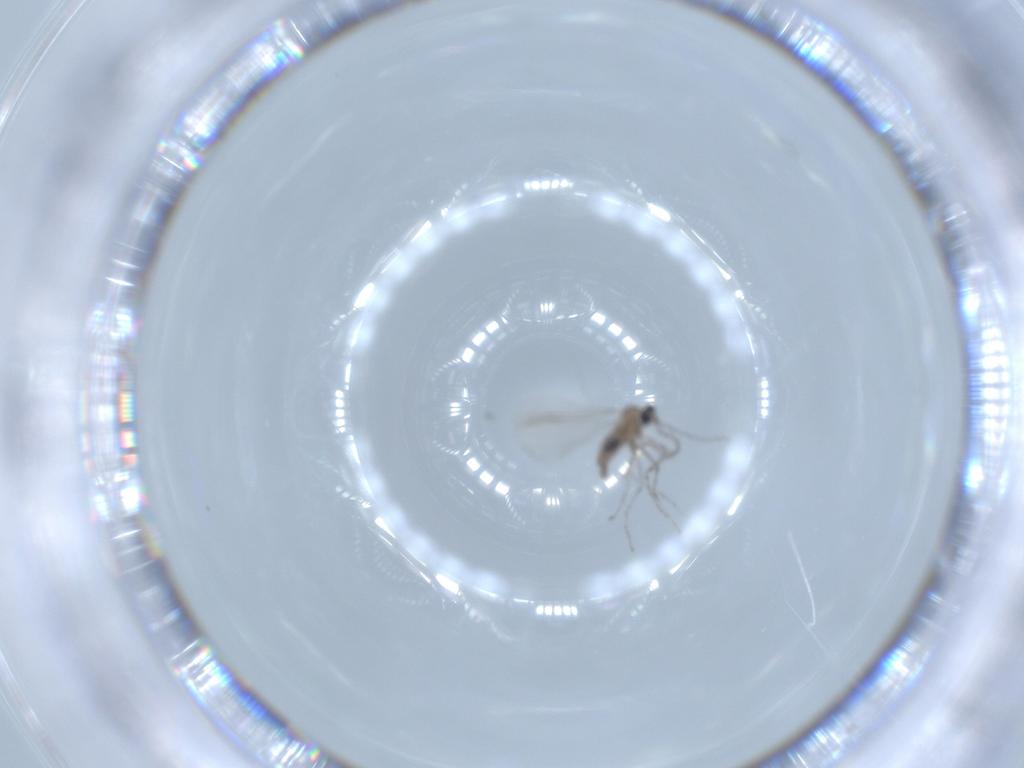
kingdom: Animalia
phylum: Arthropoda
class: Insecta
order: Diptera
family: Cecidomyiidae
